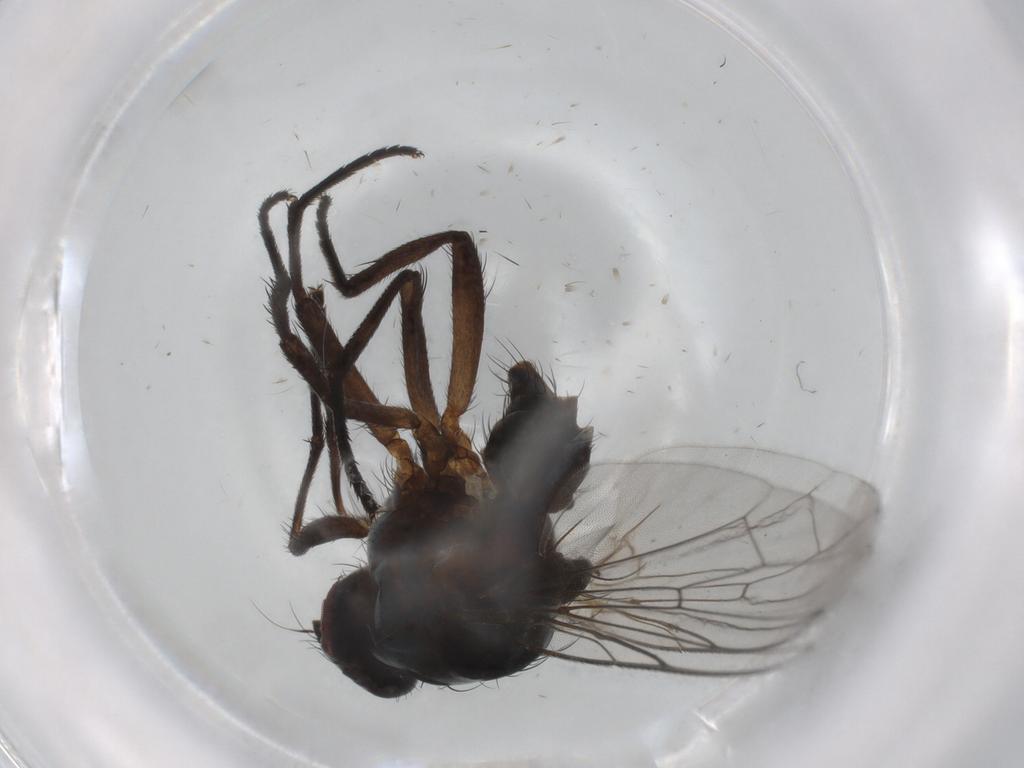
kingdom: Animalia
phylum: Arthropoda
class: Insecta
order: Diptera
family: Anthomyiidae
